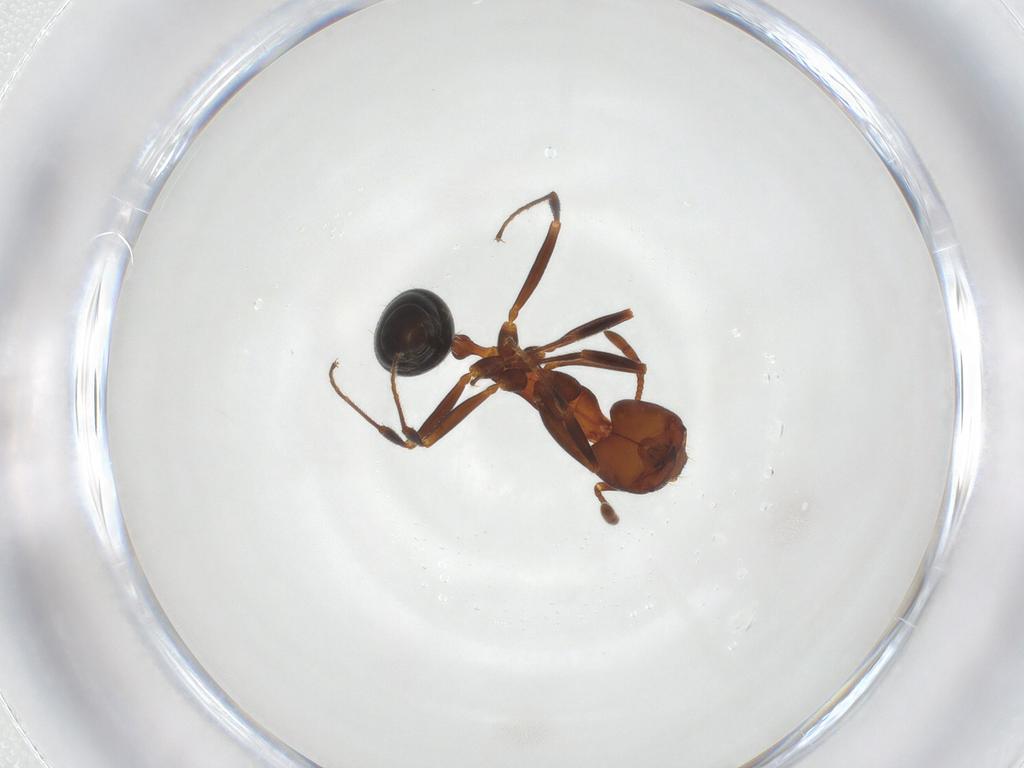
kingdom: Animalia
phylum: Arthropoda
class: Insecta
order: Hymenoptera
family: Formicidae
